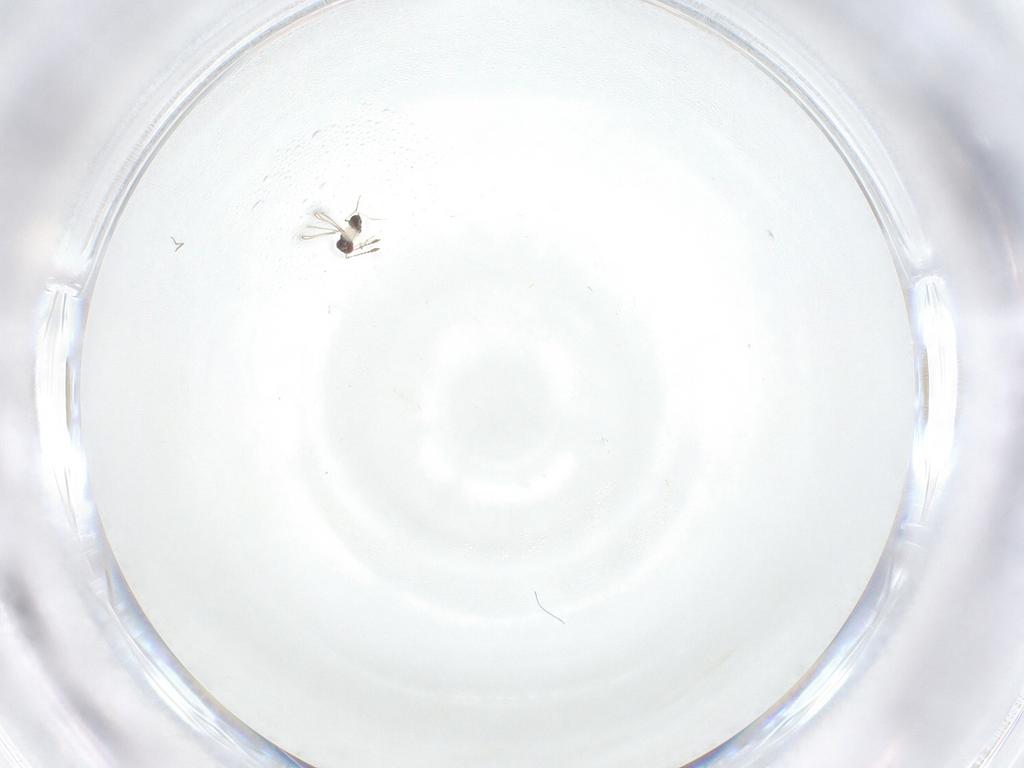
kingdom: Animalia
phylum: Arthropoda
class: Insecta
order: Hymenoptera
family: Mymaridae
